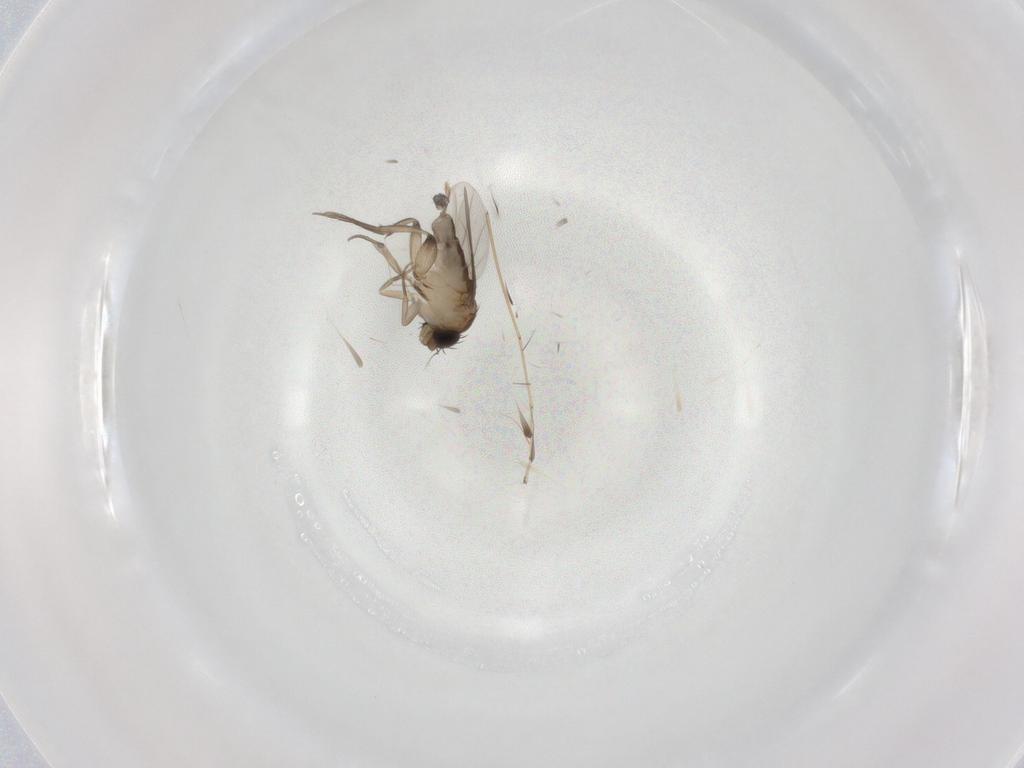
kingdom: Animalia
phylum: Arthropoda
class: Insecta
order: Diptera
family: Phoridae
